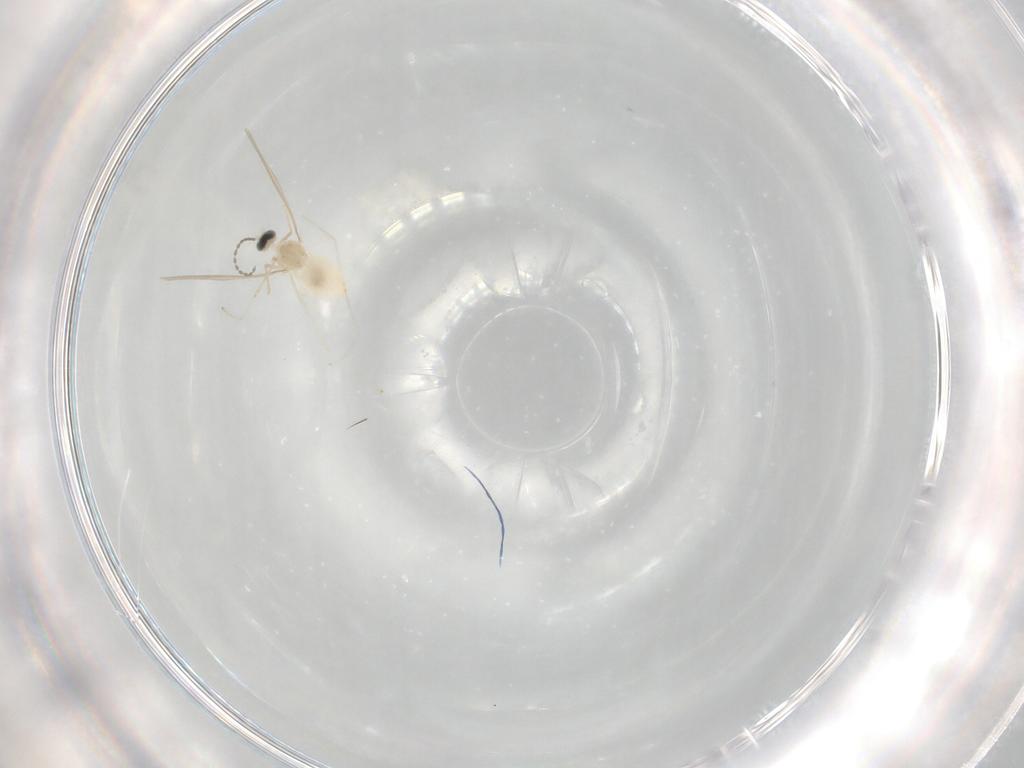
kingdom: Animalia
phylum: Arthropoda
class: Insecta
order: Diptera
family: Cecidomyiidae
